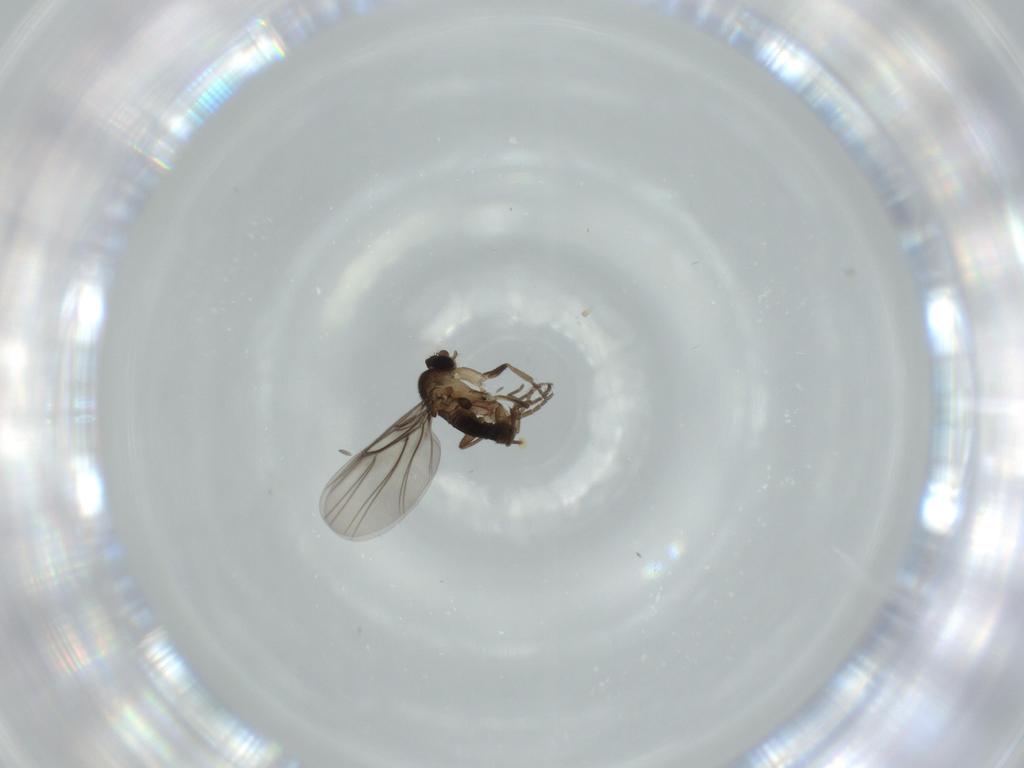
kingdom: Animalia
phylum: Arthropoda
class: Insecta
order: Diptera
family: Phoridae
